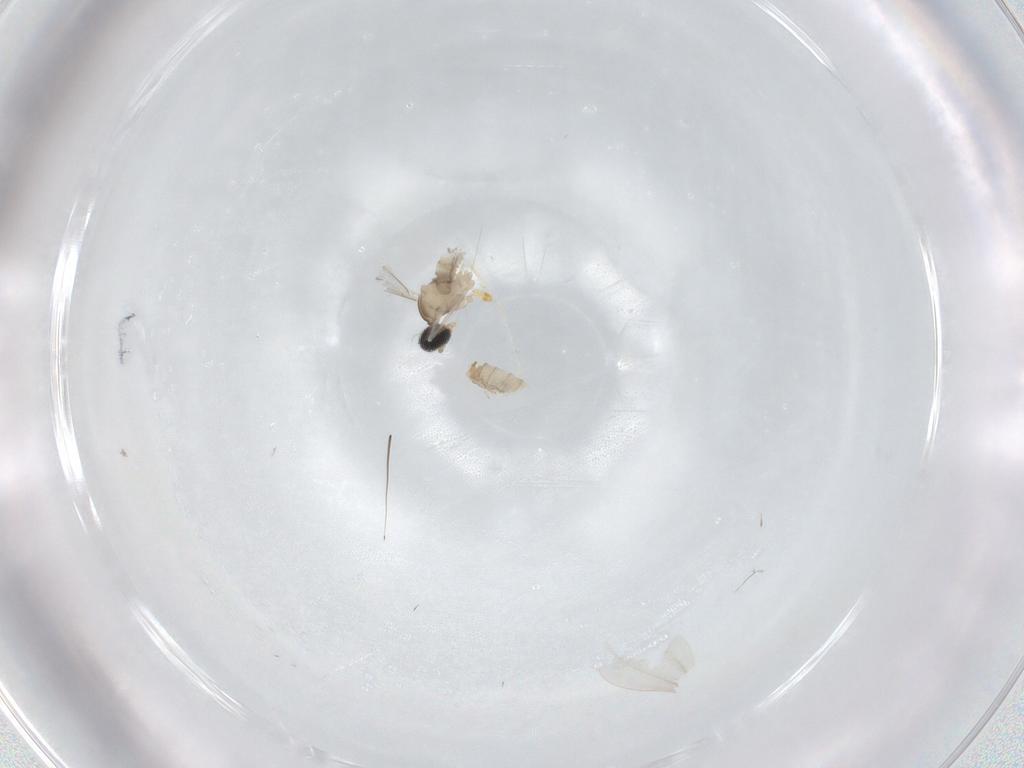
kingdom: Animalia
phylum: Arthropoda
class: Insecta
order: Diptera
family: Cecidomyiidae
